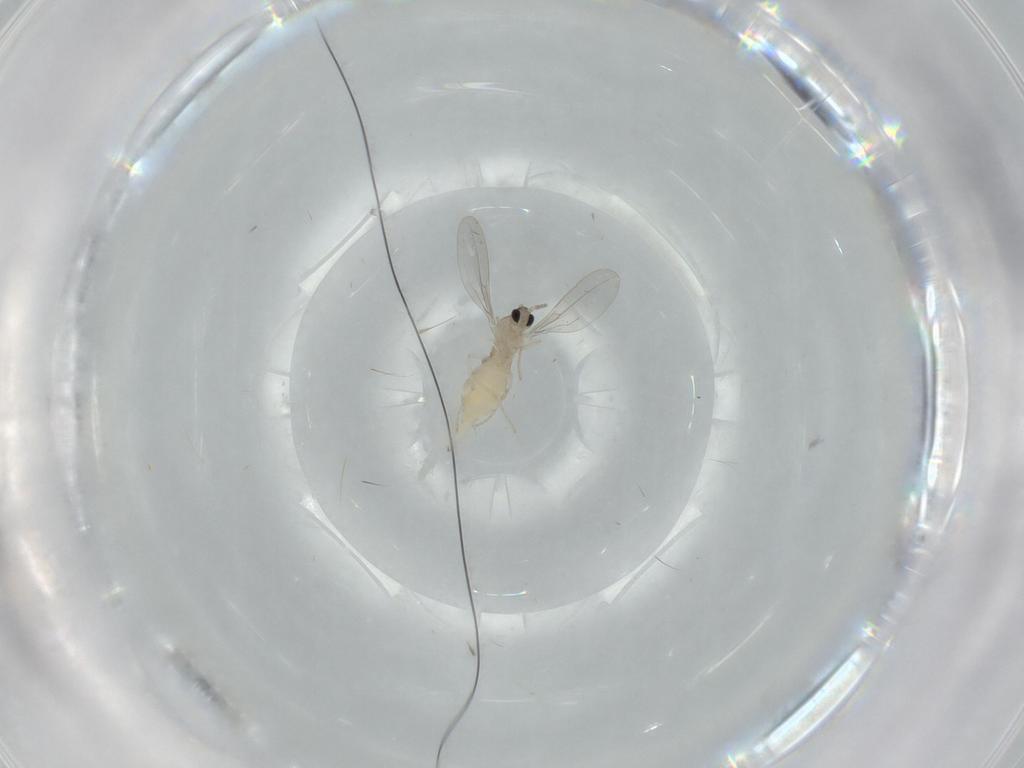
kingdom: Animalia
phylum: Arthropoda
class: Insecta
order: Diptera
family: Cecidomyiidae
